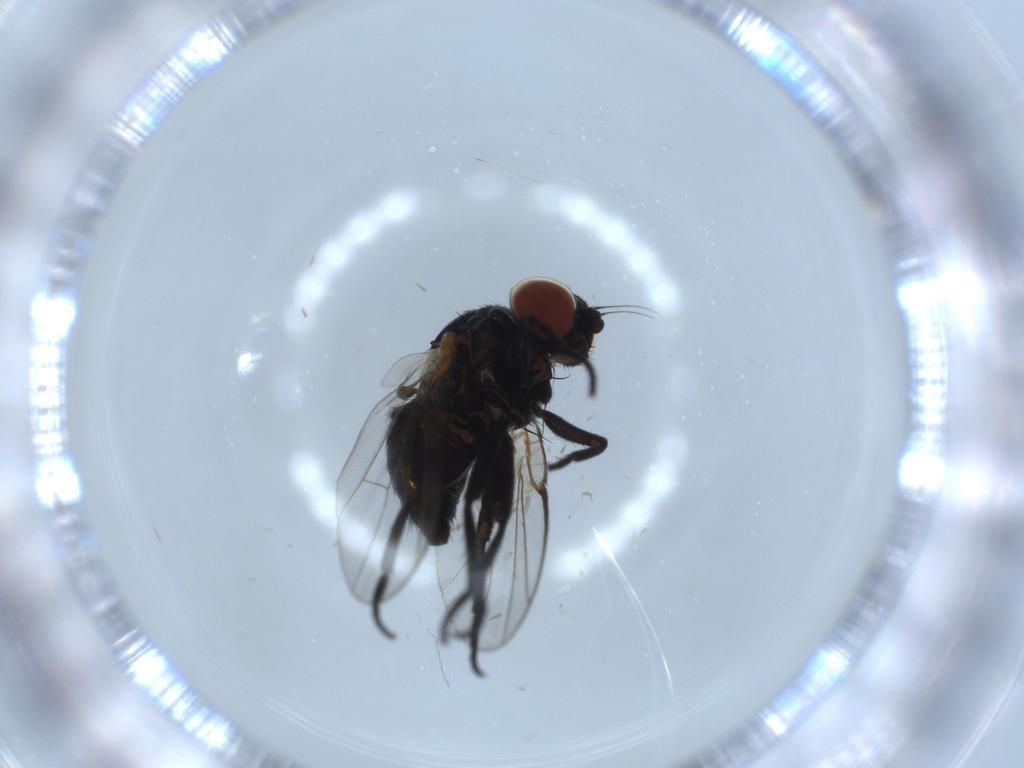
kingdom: Animalia
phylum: Arthropoda
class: Insecta
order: Diptera
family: Agromyzidae
